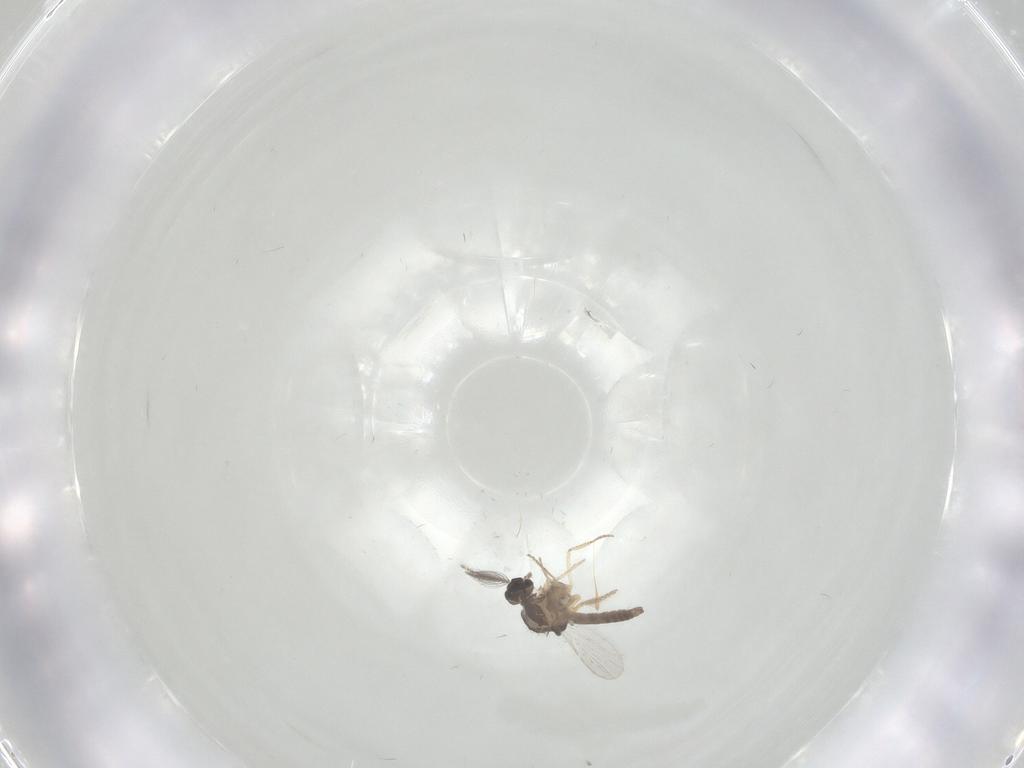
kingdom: Animalia
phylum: Arthropoda
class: Insecta
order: Diptera
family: Ceratopogonidae
